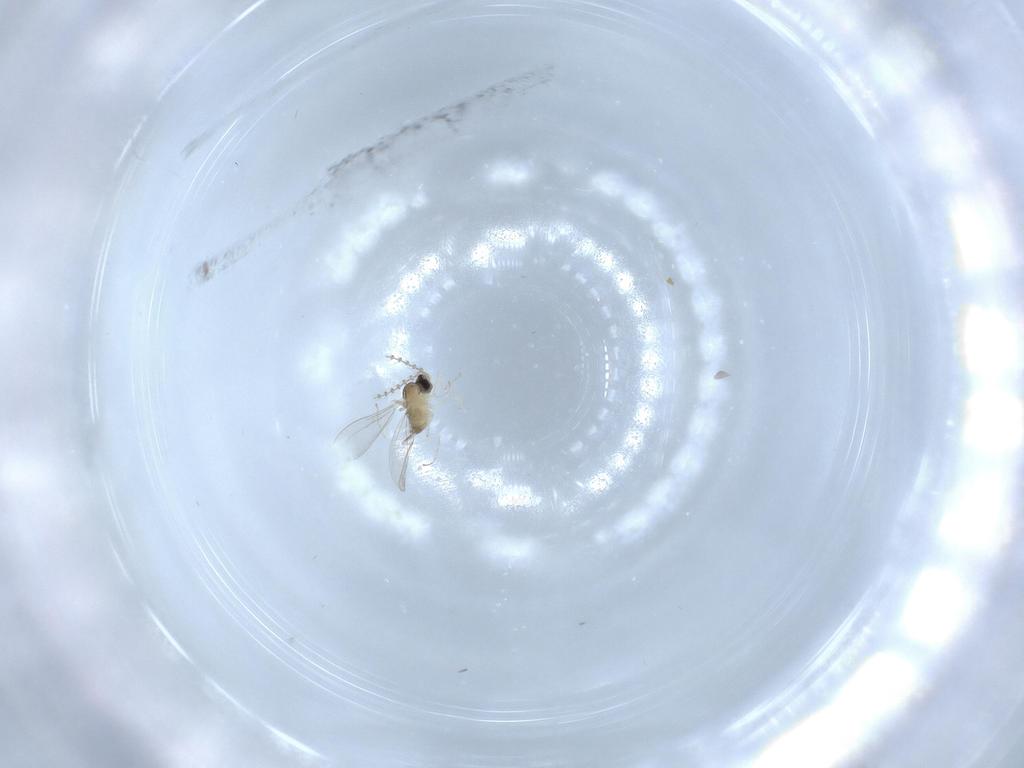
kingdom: Animalia
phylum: Arthropoda
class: Insecta
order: Diptera
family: Cecidomyiidae
